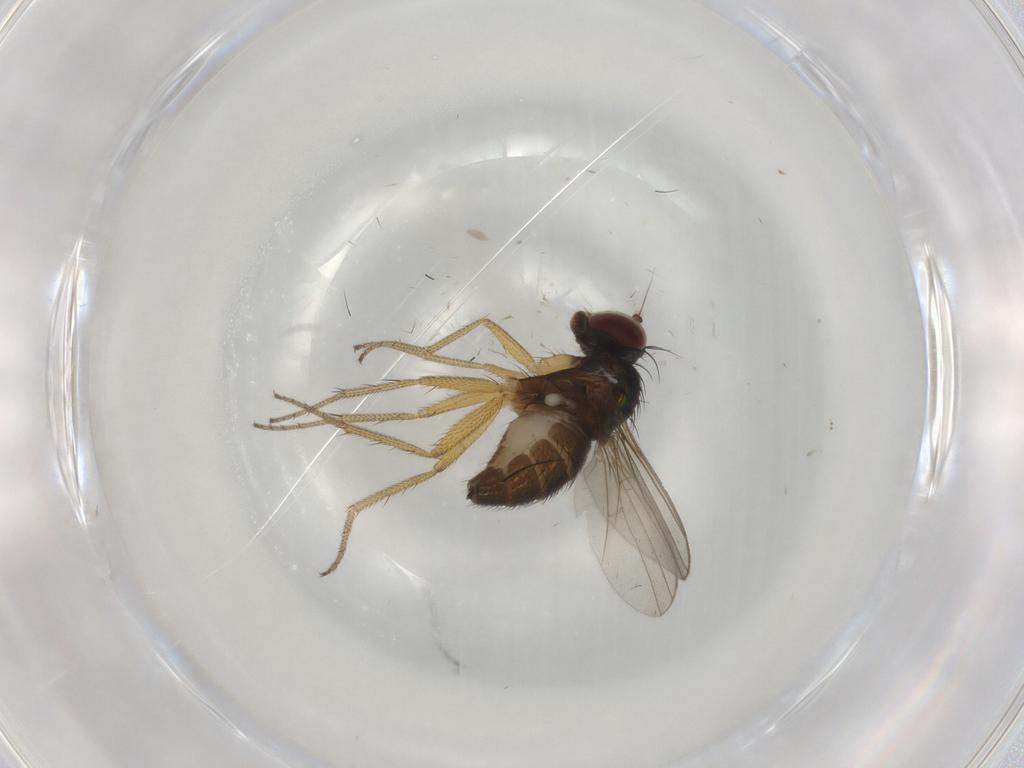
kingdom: Animalia
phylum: Arthropoda
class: Insecta
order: Diptera
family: Dolichopodidae
